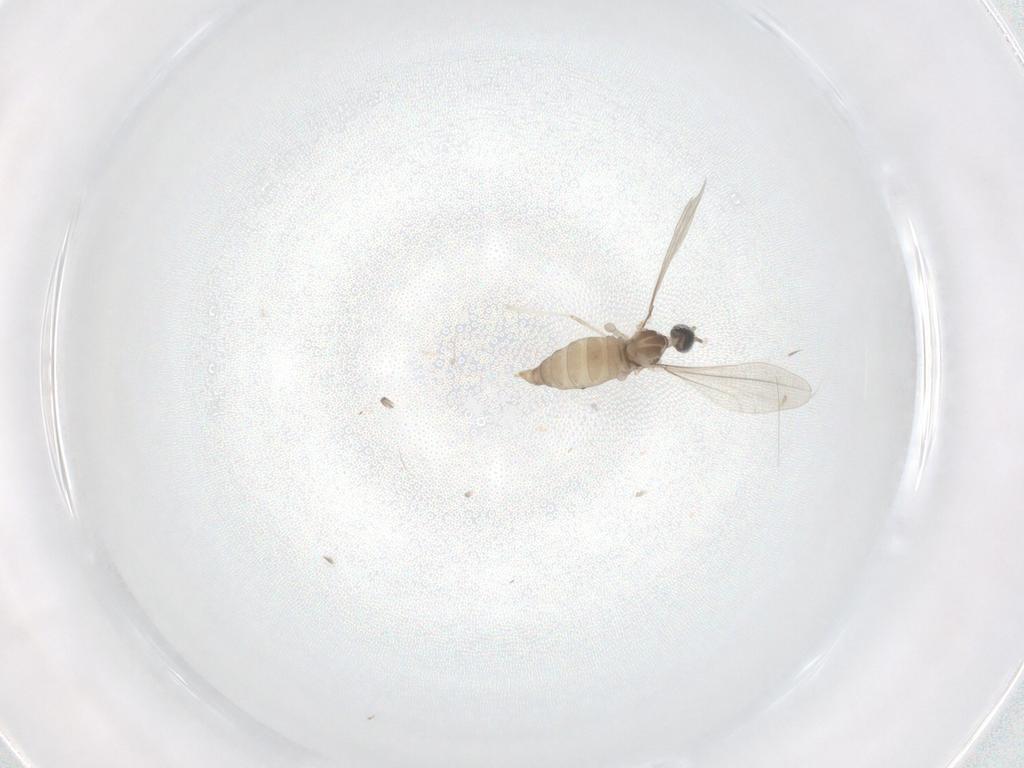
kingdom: Animalia
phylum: Arthropoda
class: Insecta
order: Diptera
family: Cecidomyiidae
